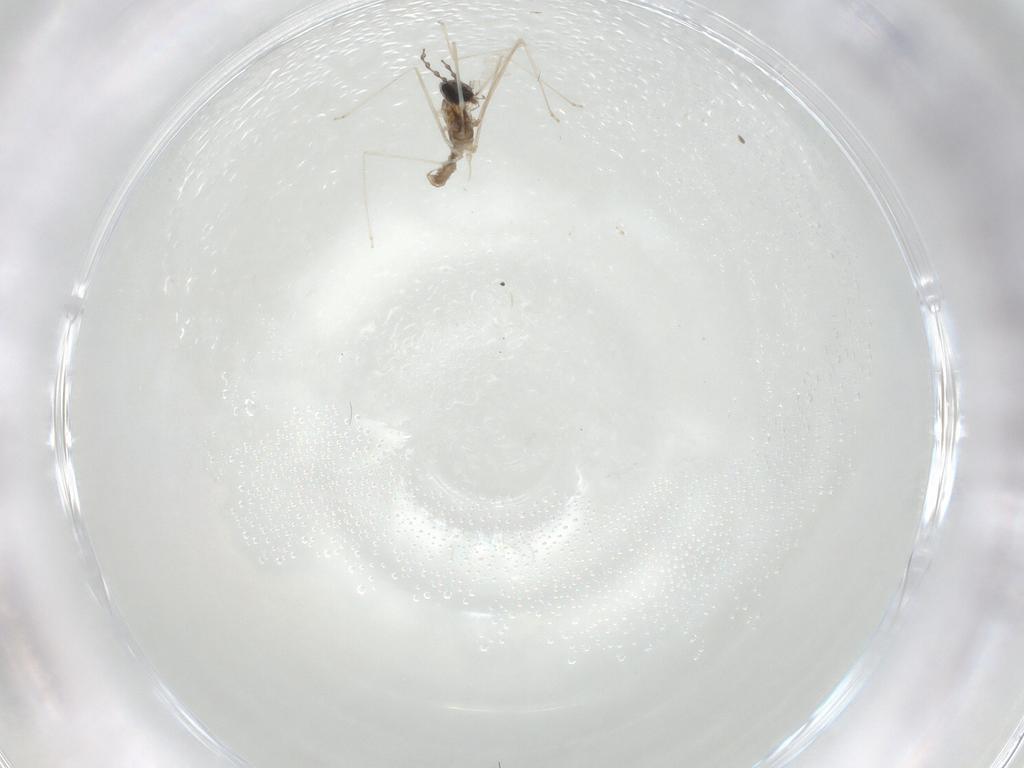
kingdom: Animalia
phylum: Arthropoda
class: Insecta
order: Diptera
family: Cecidomyiidae
